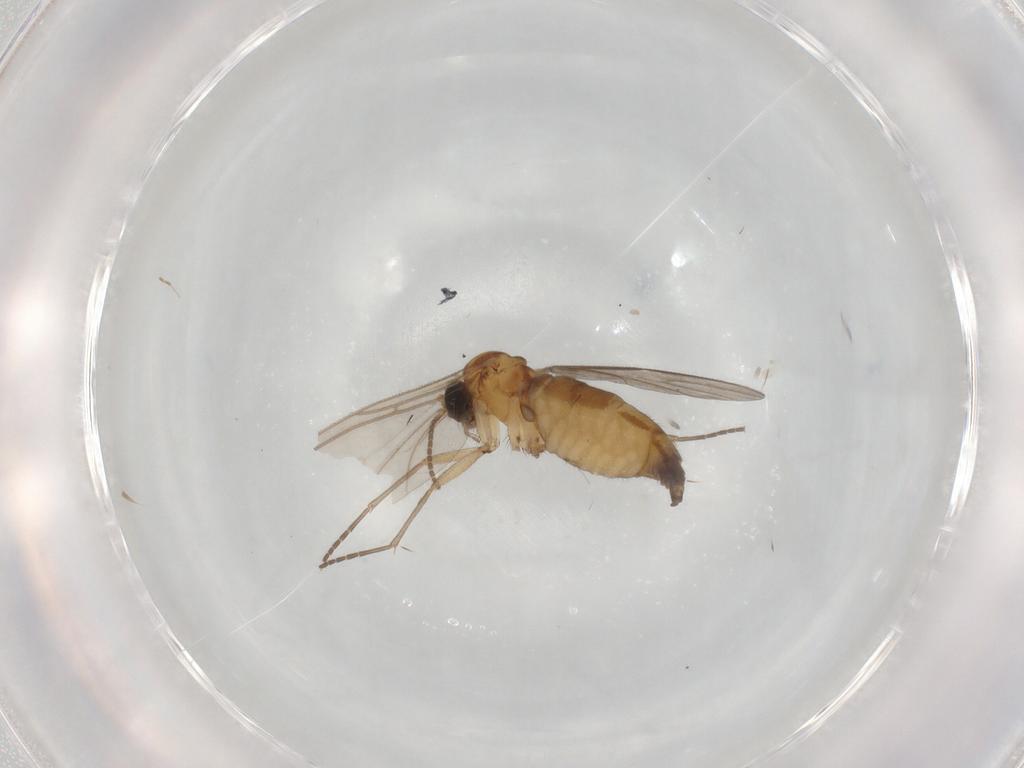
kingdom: Animalia
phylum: Arthropoda
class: Insecta
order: Diptera
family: Sciaridae
